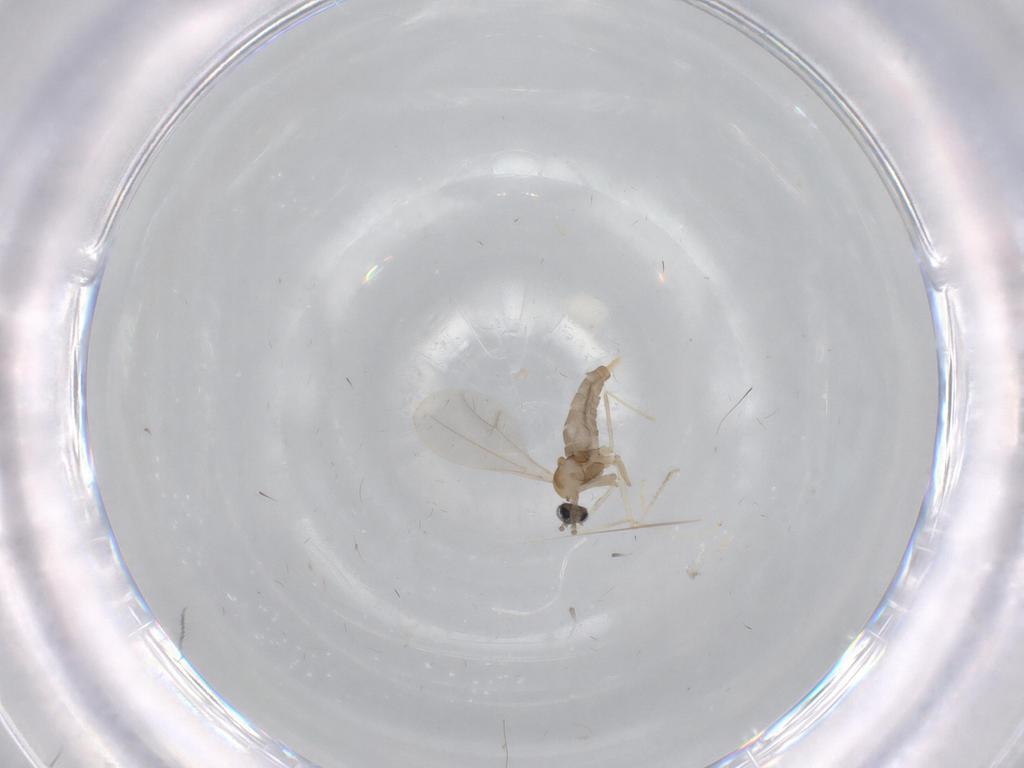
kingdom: Animalia
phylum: Arthropoda
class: Insecta
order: Diptera
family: Cecidomyiidae
